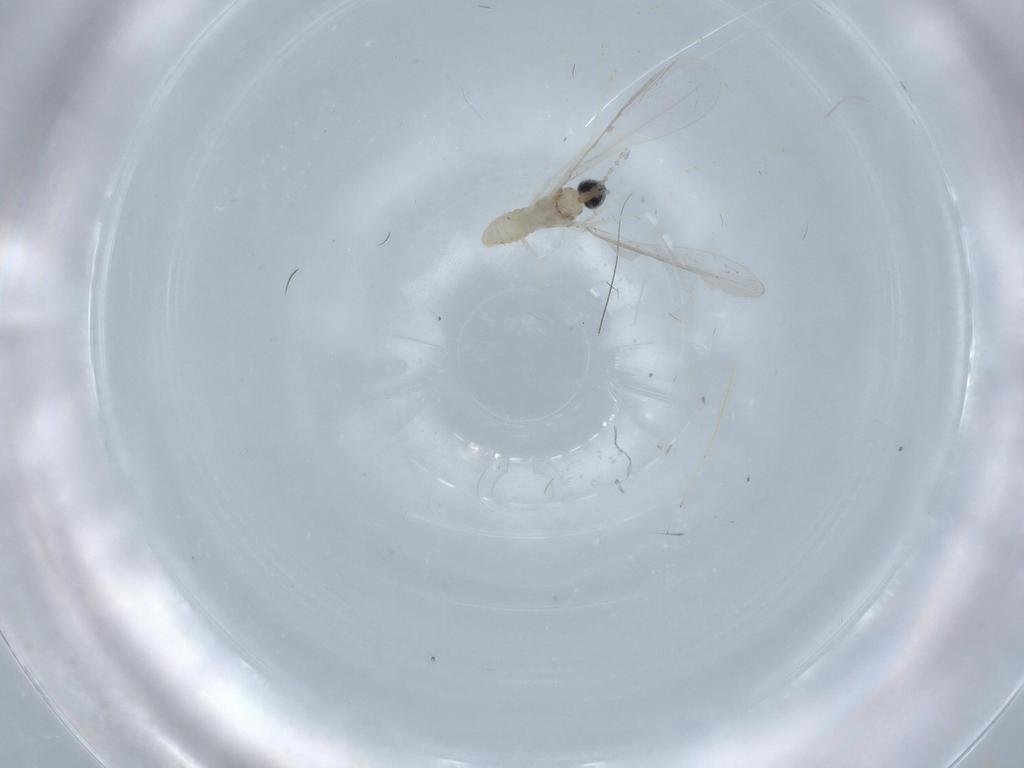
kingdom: Animalia
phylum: Arthropoda
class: Insecta
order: Diptera
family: Cecidomyiidae
